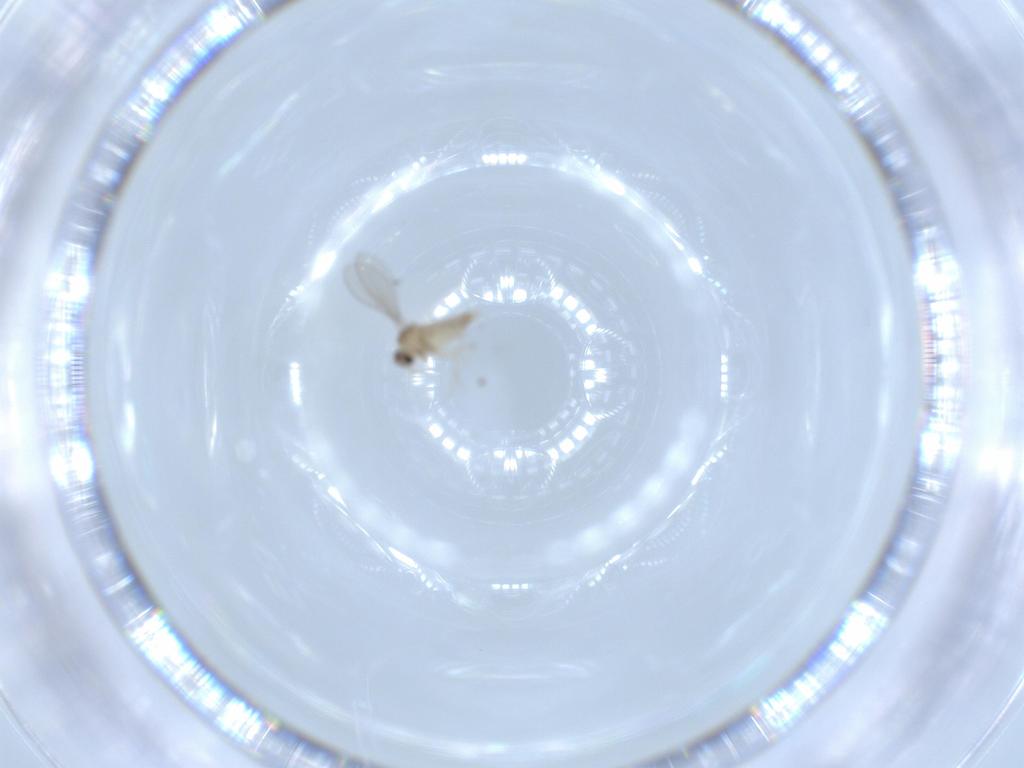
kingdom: Animalia
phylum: Arthropoda
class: Insecta
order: Diptera
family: Cecidomyiidae
